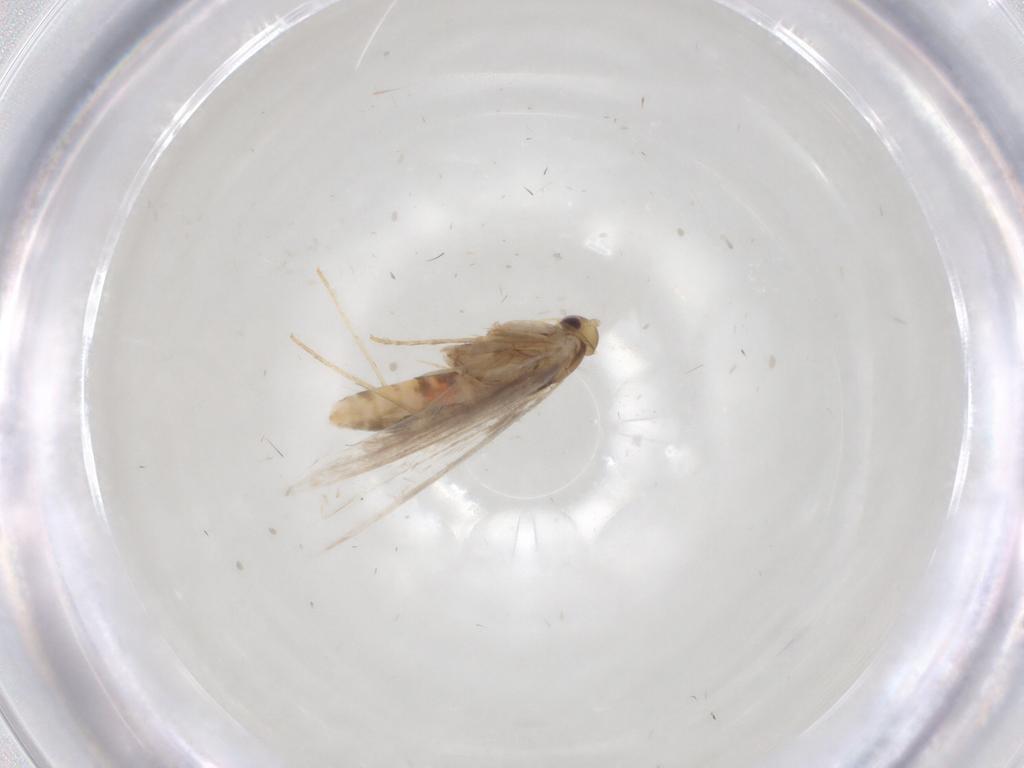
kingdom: Animalia
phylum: Arthropoda
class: Insecta
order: Lepidoptera
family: Gracillariidae
